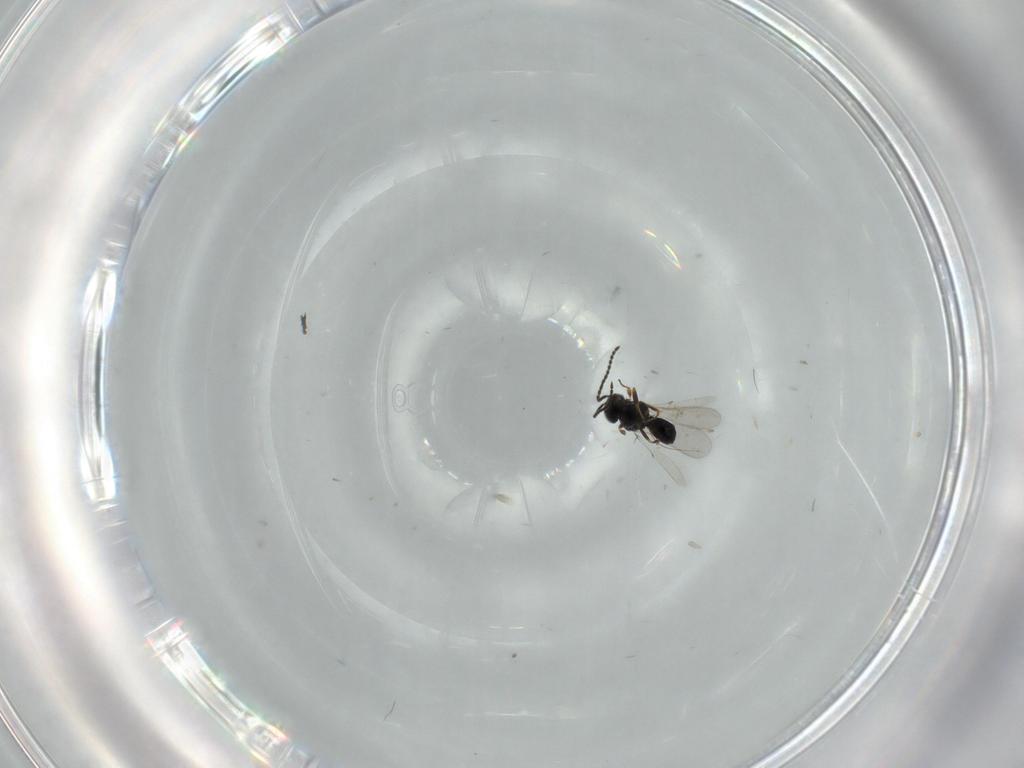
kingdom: Animalia
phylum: Arthropoda
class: Insecta
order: Hymenoptera
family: Scelionidae
